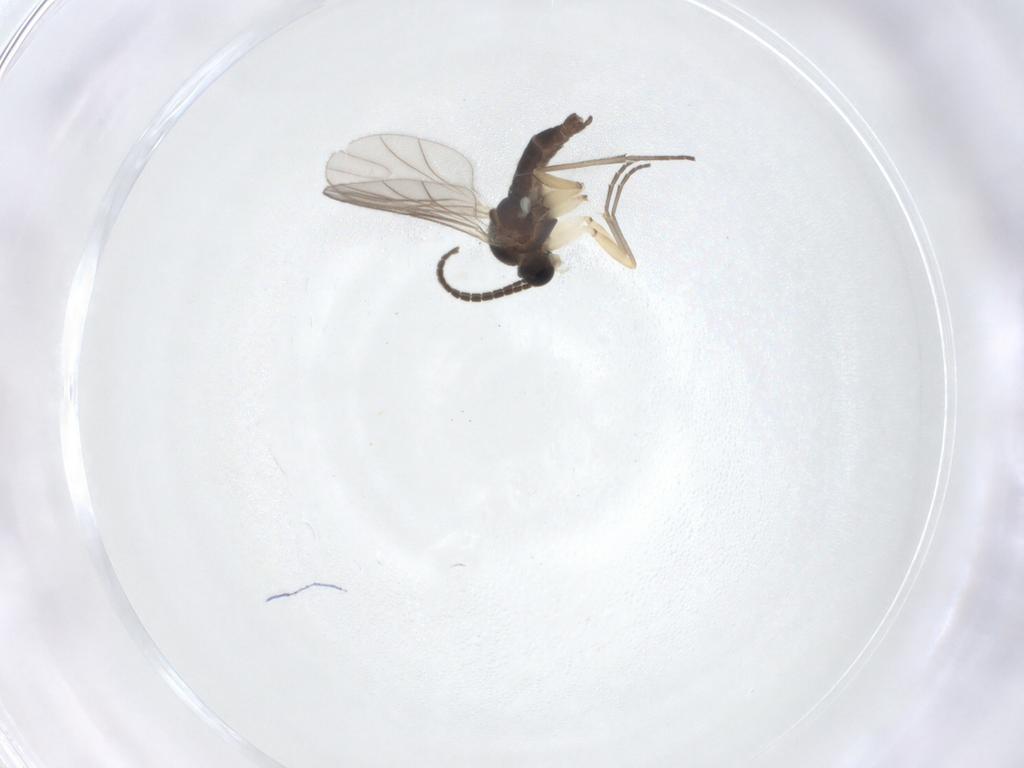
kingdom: Animalia
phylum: Arthropoda
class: Insecta
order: Diptera
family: Sciaridae
